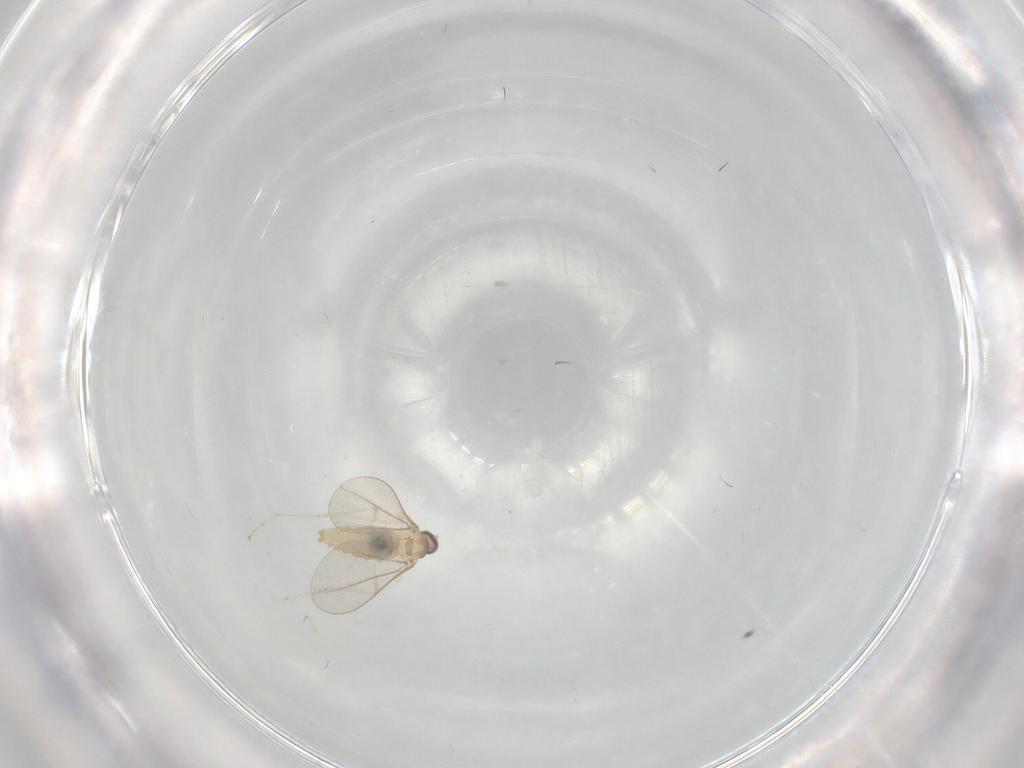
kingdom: Animalia
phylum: Arthropoda
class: Insecta
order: Diptera
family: Cecidomyiidae
